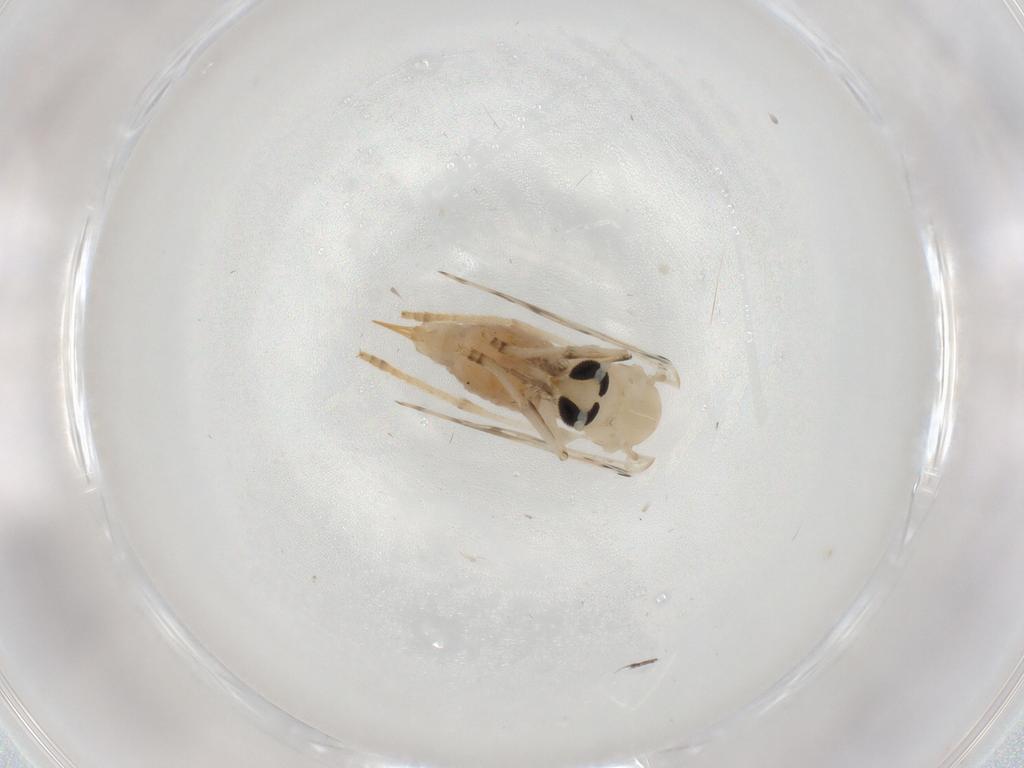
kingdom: Animalia
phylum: Arthropoda
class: Insecta
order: Diptera
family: Psychodidae
